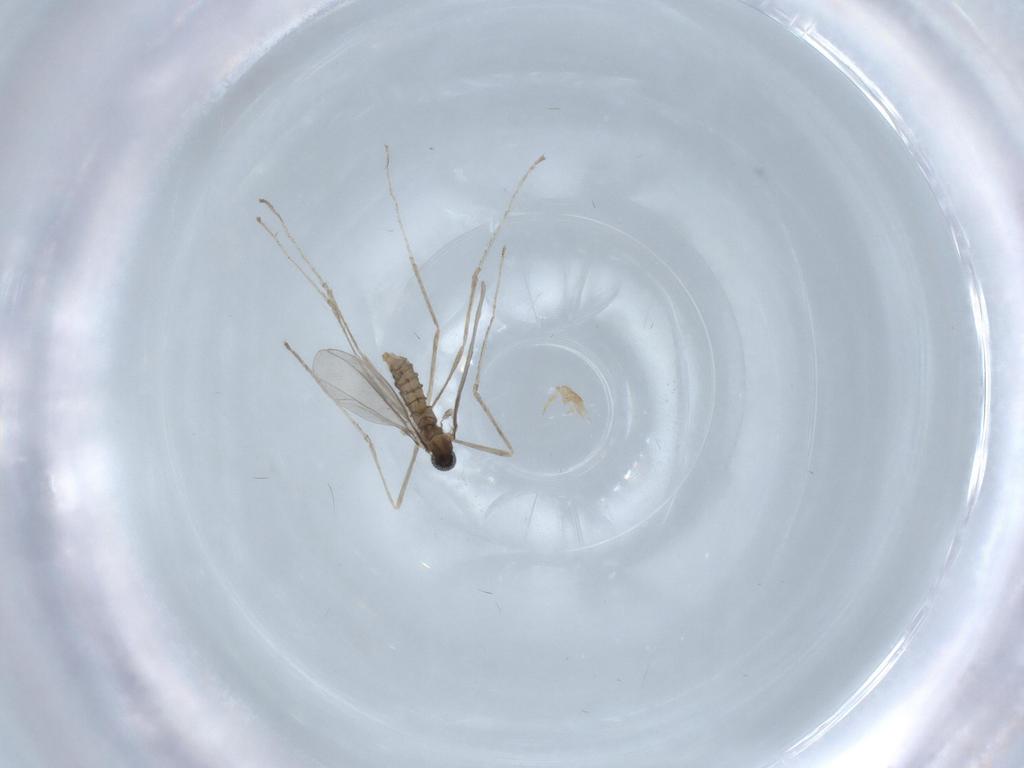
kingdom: Animalia
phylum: Arthropoda
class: Insecta
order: Diptera
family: Cecidomyiidae
